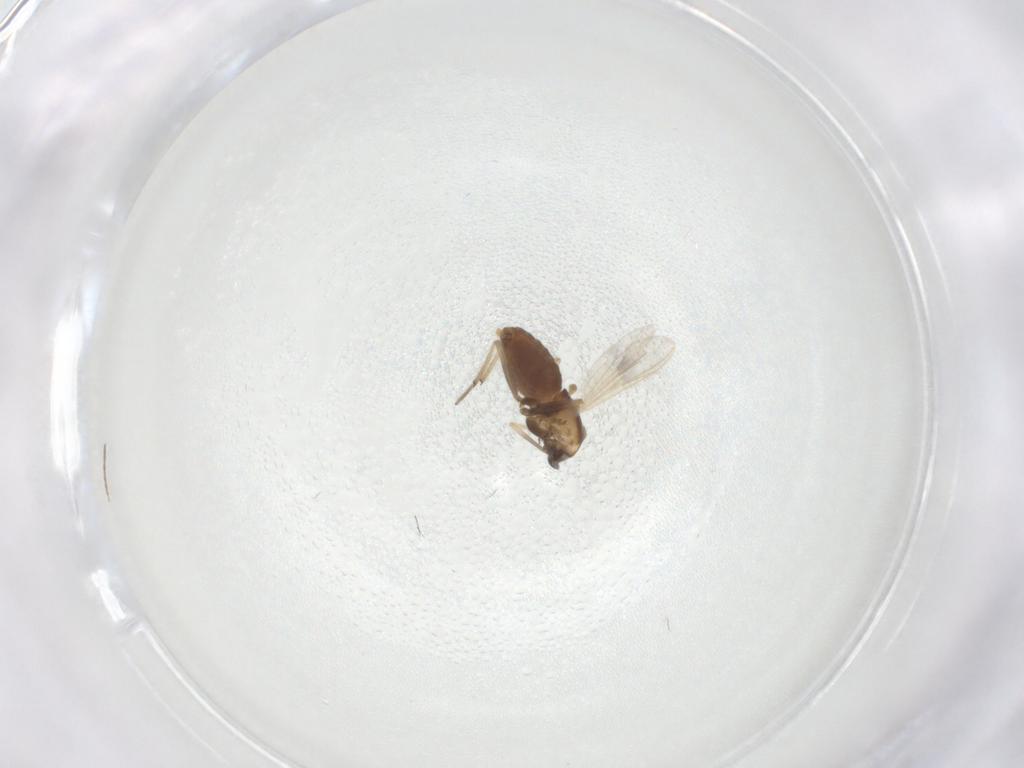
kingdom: Animalia
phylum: Arthropoda
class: Insecta
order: Diptera
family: Chironomidae
